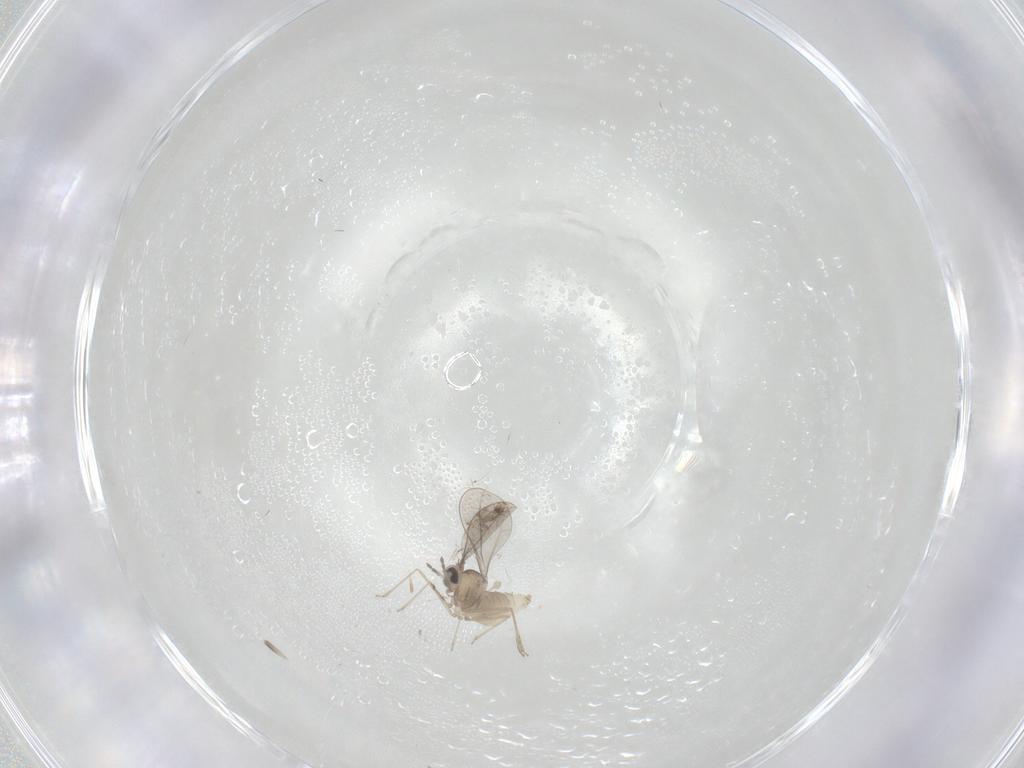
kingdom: Animalia
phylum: Arthropoda
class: Insecta
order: Diptera
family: Cecidomyiidae
